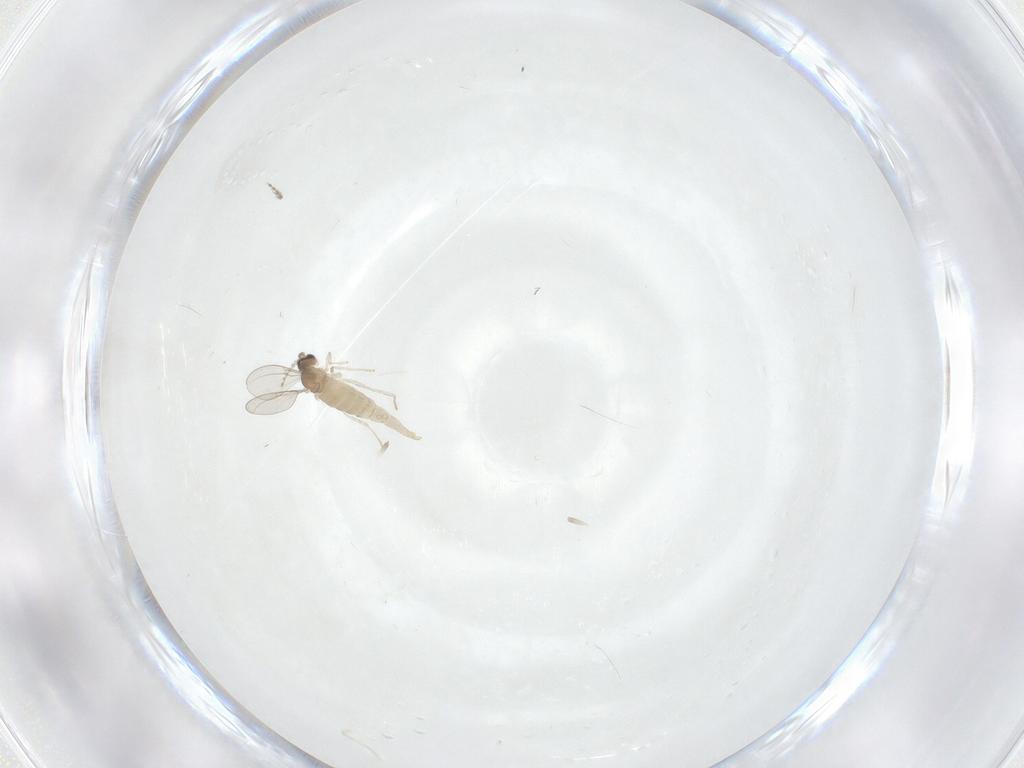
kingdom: Animalia
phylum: Arthropoda
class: Insecta
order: Diptera
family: Cecidomyiidae
